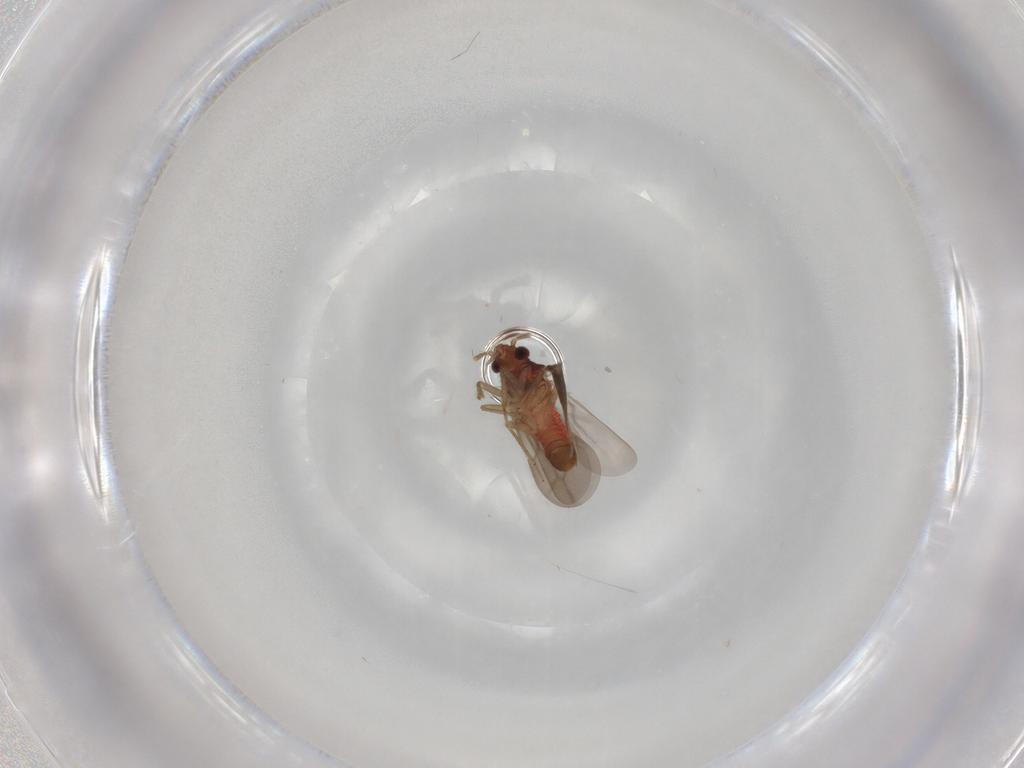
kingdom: Animalia
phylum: Arthropoda
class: Insecta
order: Hemiptera
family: Ceratocombidae
